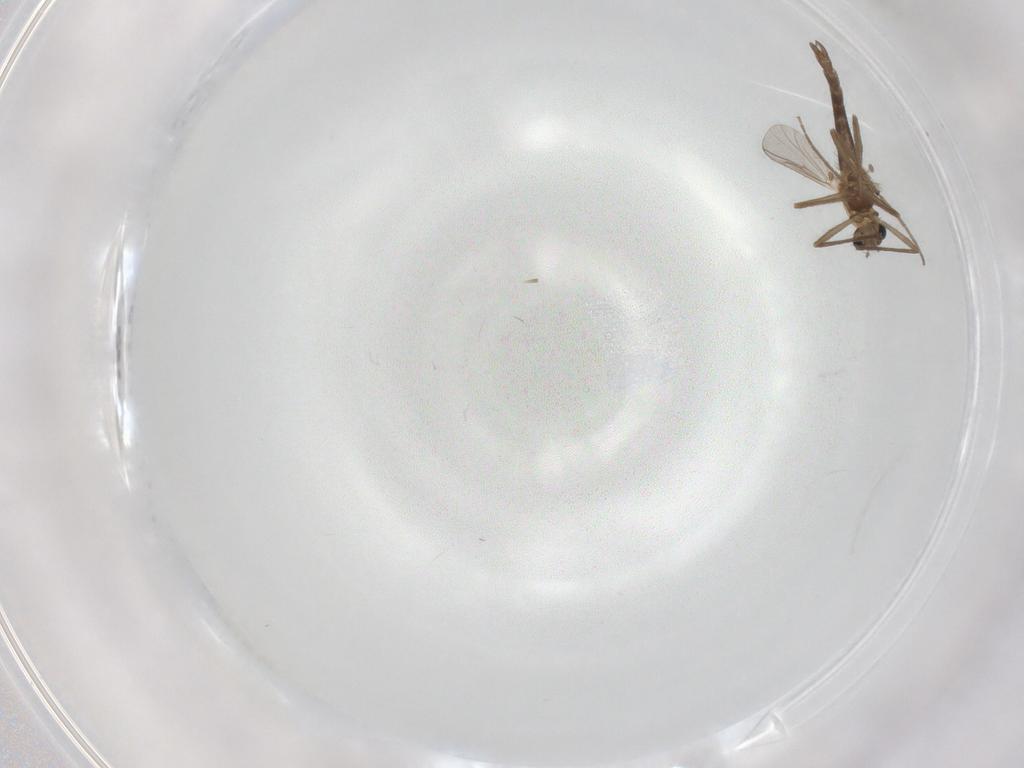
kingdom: Animalia
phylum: Arthropoda
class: Insecta
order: Diptera
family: Chironomidae
